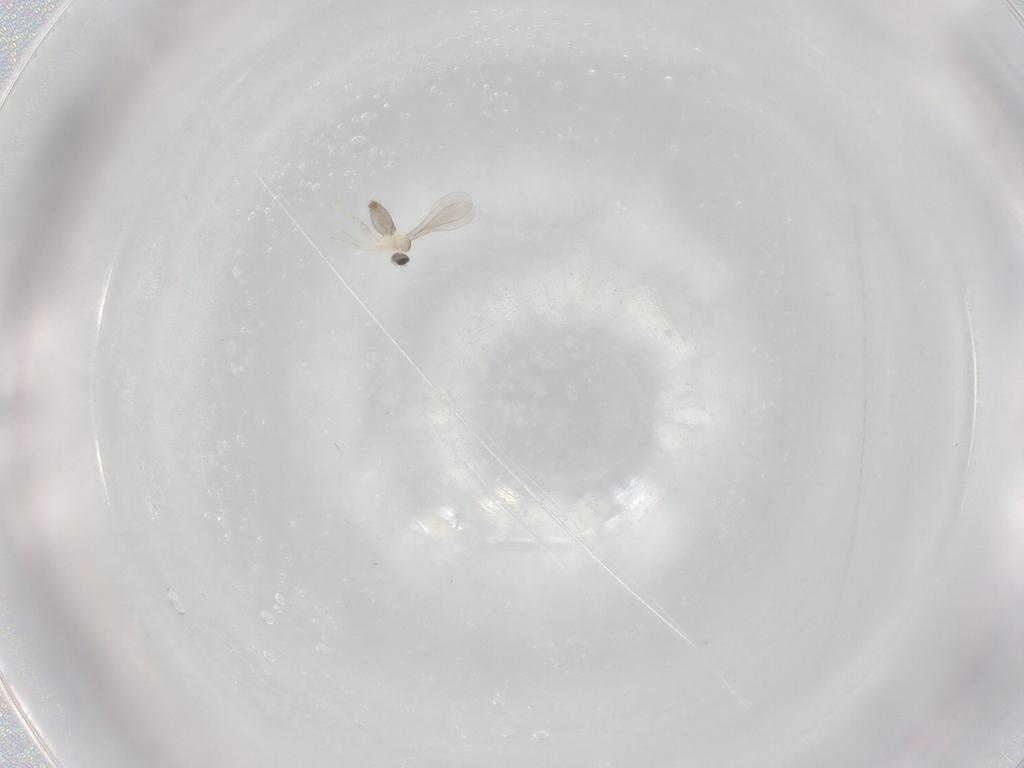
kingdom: Animalia
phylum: Arthropoda
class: Insecta
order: Diptera
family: Cecidomyiidae
